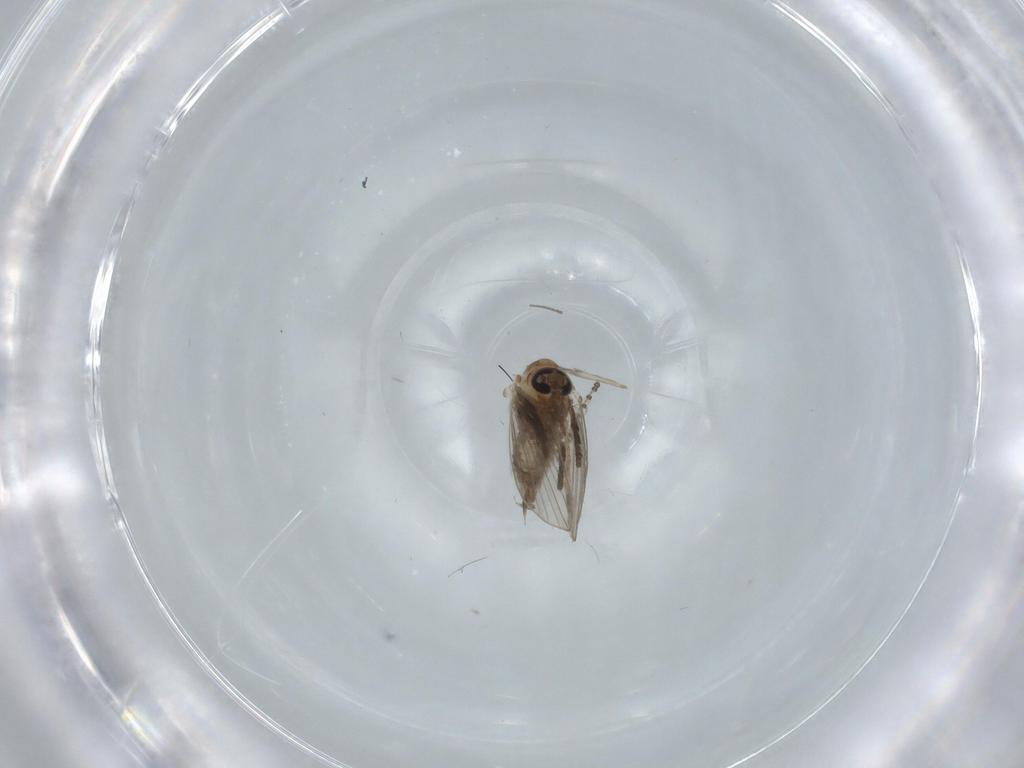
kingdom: Animalia
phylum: Arthropoda
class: Insecta
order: Diptera
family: Psychodidae
